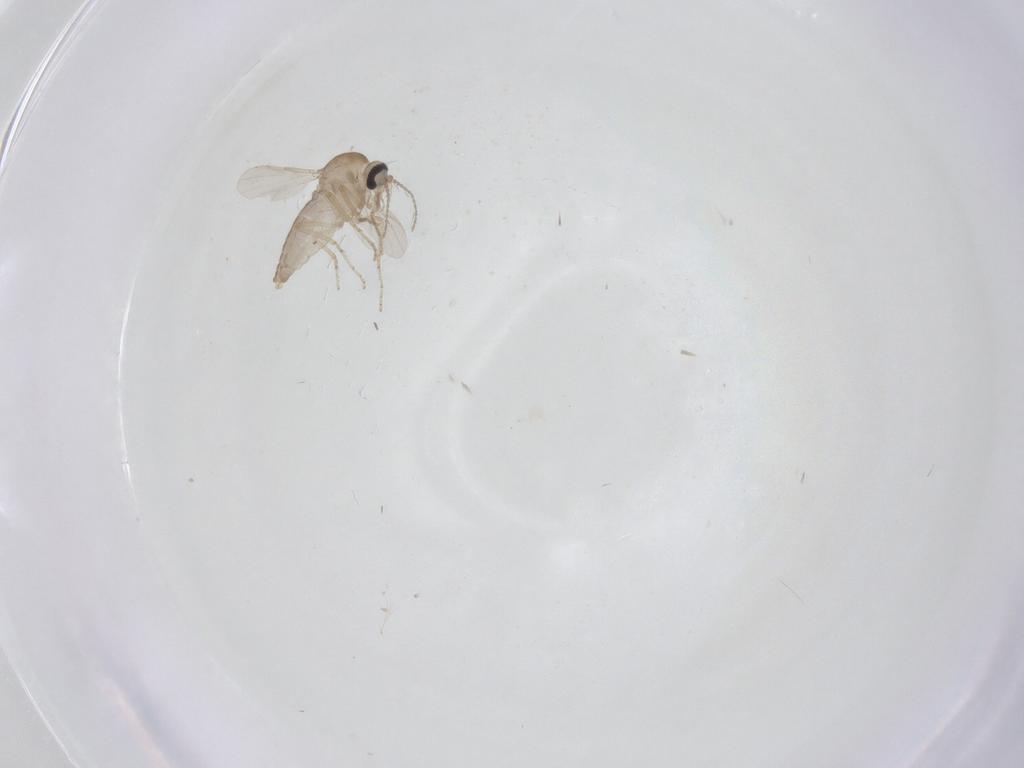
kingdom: Animalia
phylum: Arthropoda
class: Insecta
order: Diptera
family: Ceratopogonidae
